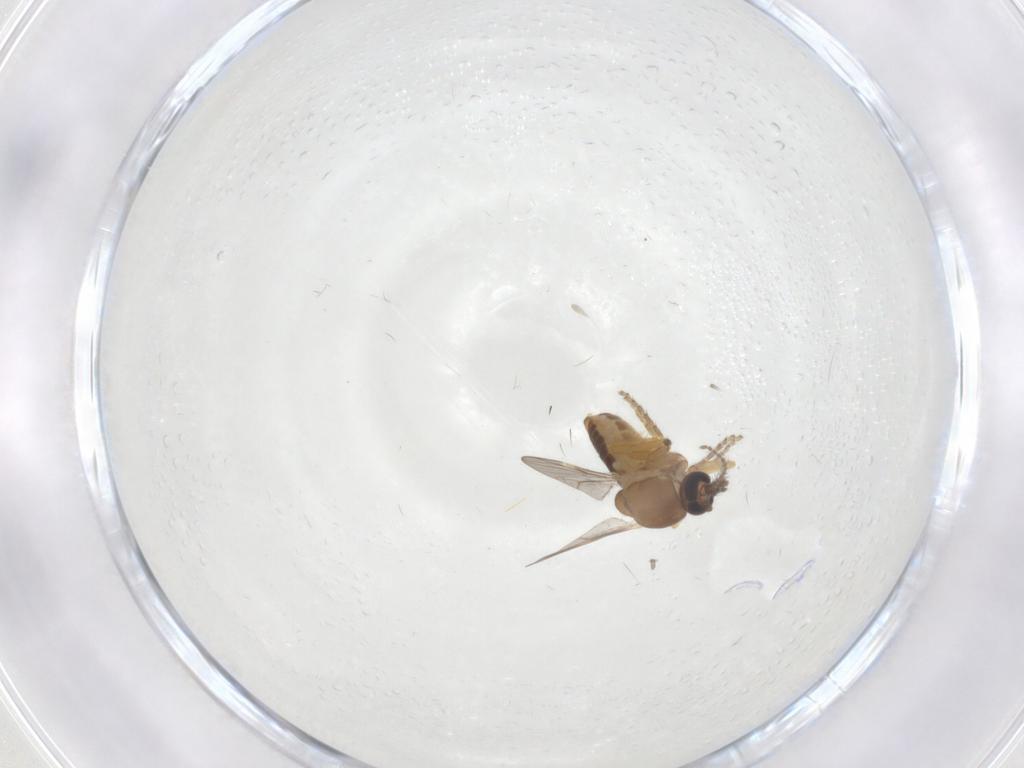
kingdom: Animalia
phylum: Arthropoda
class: Insecta
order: Diptera
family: Ceratopogonidae
